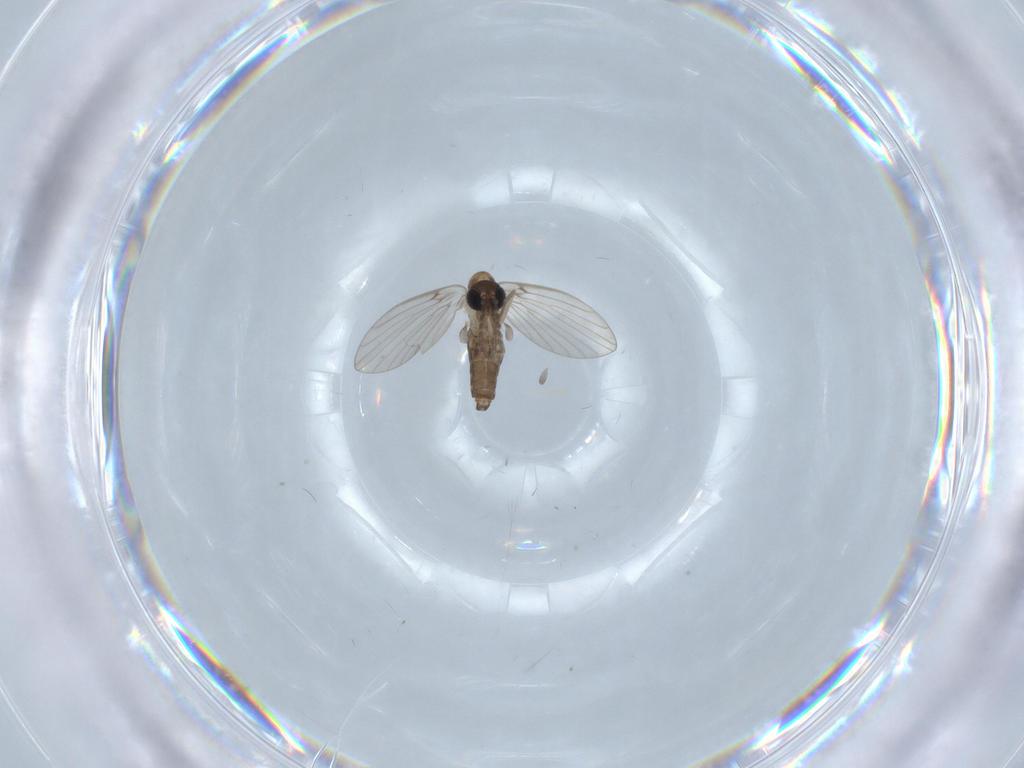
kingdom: Animalia
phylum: Arthropoda
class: Insecta
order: Diptera
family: Psychodidae
